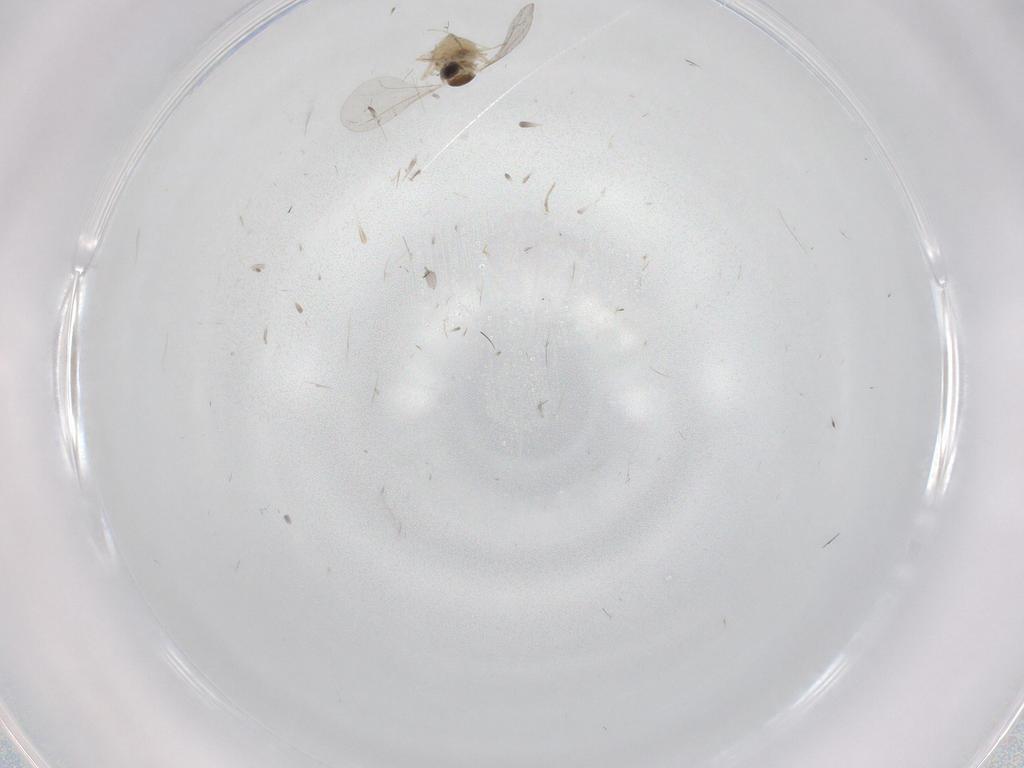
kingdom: Animalia
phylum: Arthropoda
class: Insecta
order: Diptera
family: Cecidomyiidae
